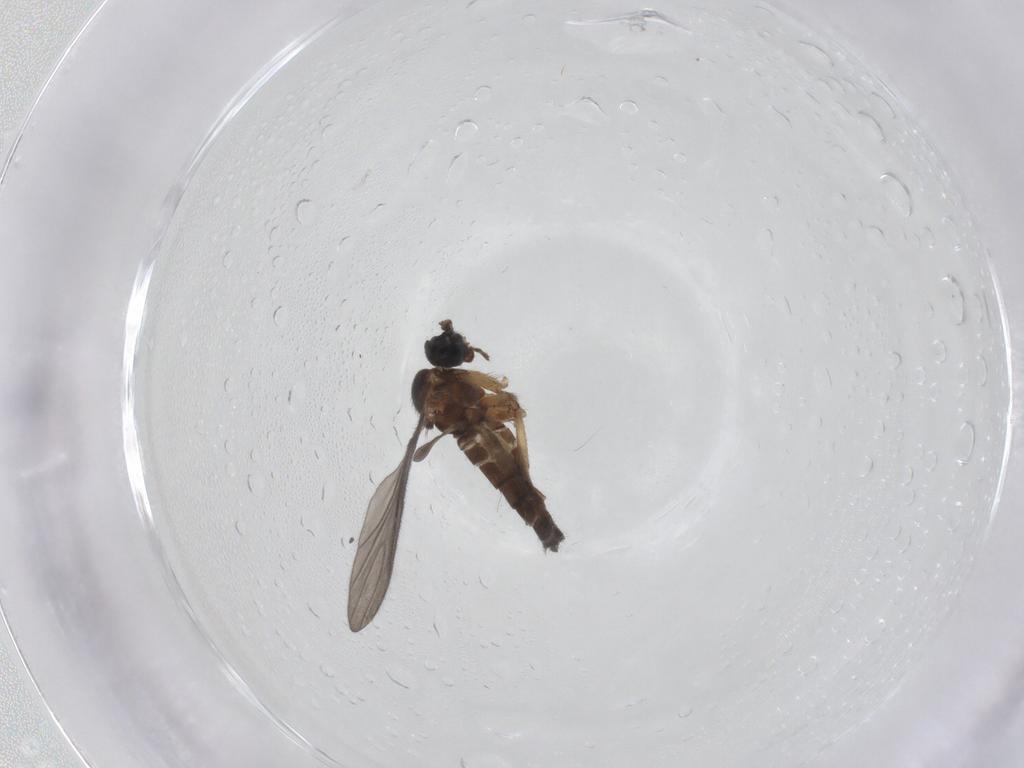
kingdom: Animalia
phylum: Arthropoda
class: Insecta
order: Diptera
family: Sciaridae
